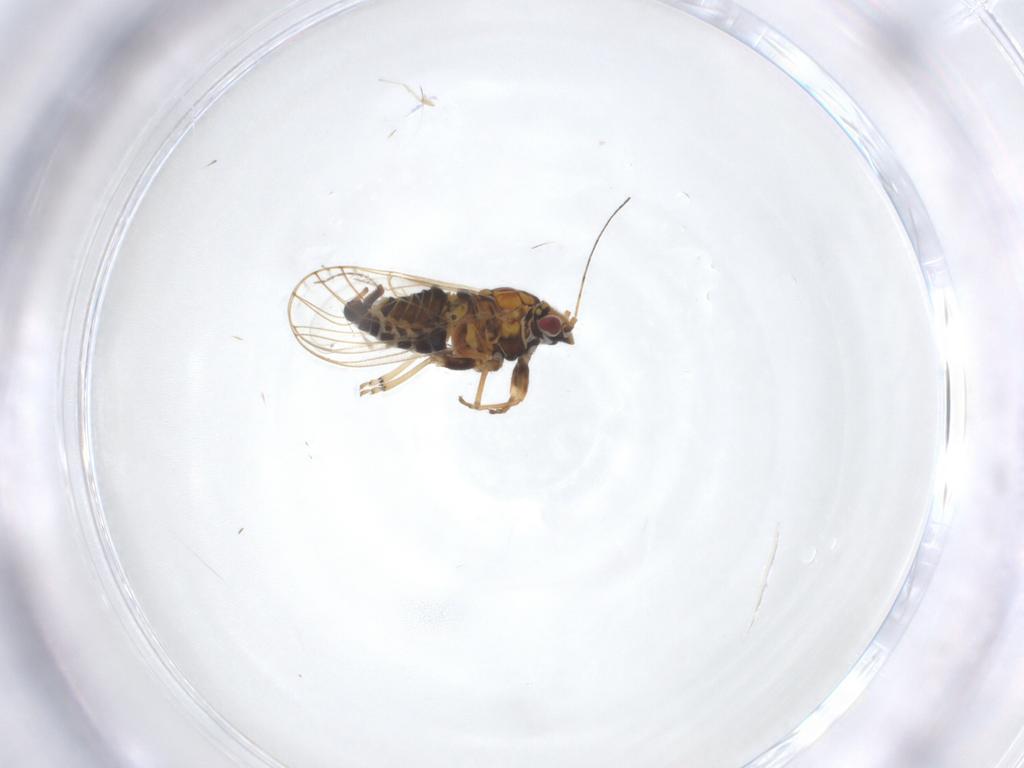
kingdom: Animalia
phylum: Arthropoda
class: Insecta
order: Hemiptera
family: Psylloidea_incertae_sedis
